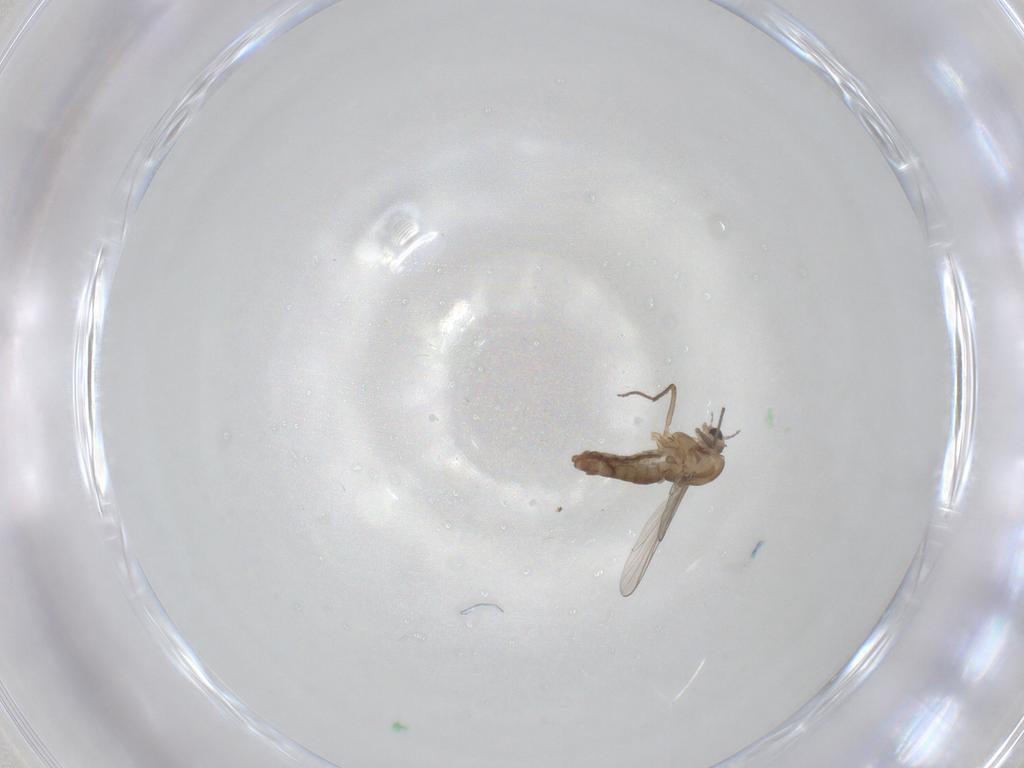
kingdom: Animalia
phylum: Arthropoda
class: Insecta
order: Diptera
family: Chironomidae
